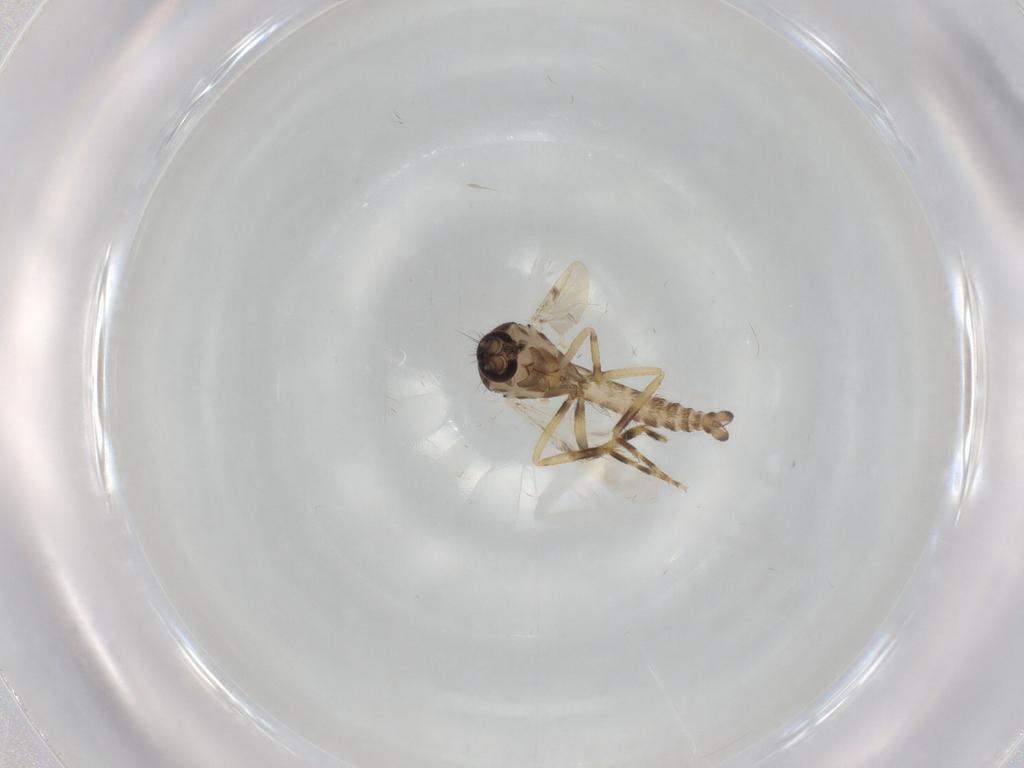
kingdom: Animalia
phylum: Arthropoda
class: Insecta
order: Diptera
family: Ceratopogonidae
